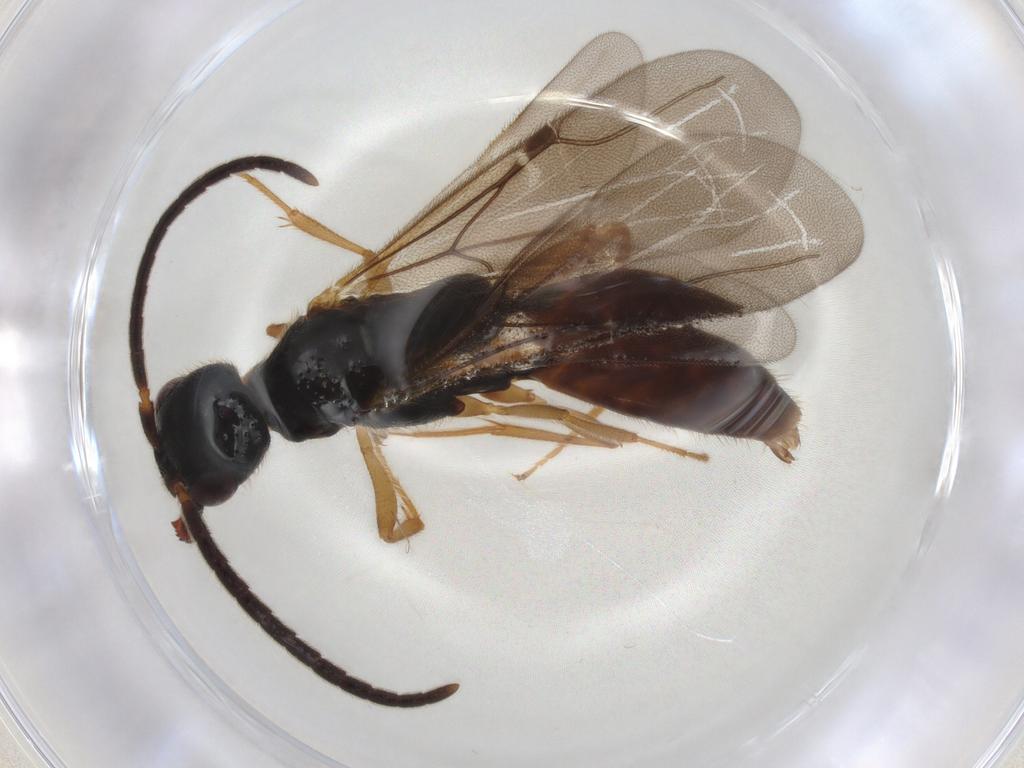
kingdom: Animalia
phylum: Arthropoda
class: Insecta
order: Hymenoptera
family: Bethylidae
